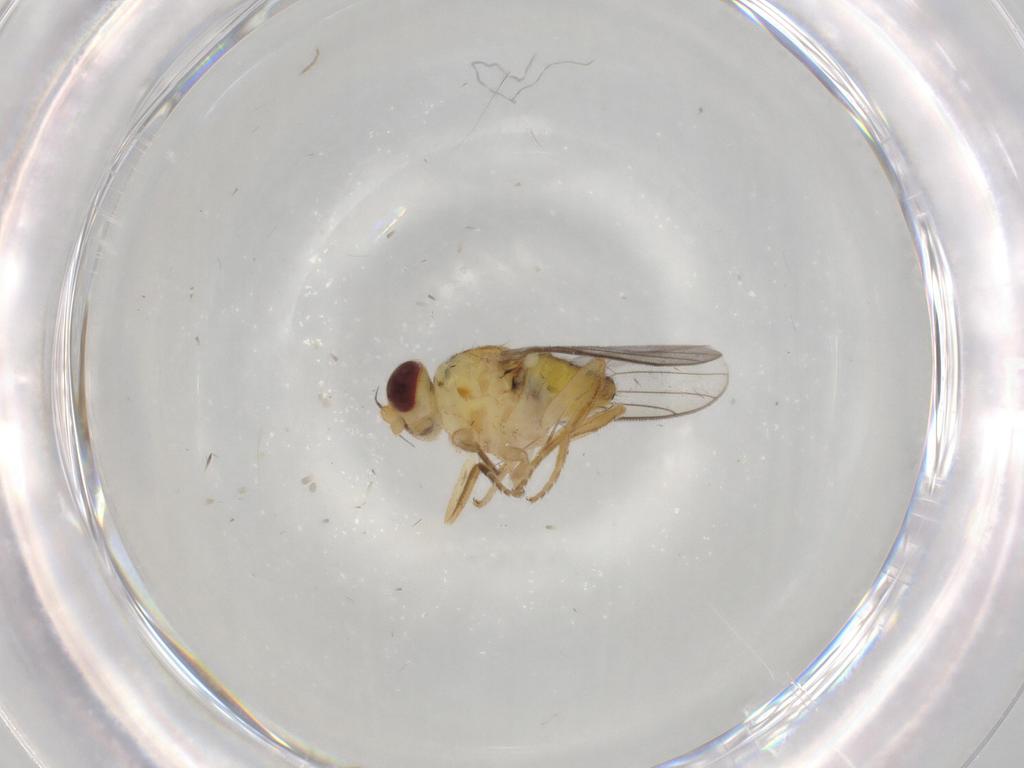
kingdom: Animalia
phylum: Arthropoda
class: Insecta
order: Diptera
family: Chloropidae
